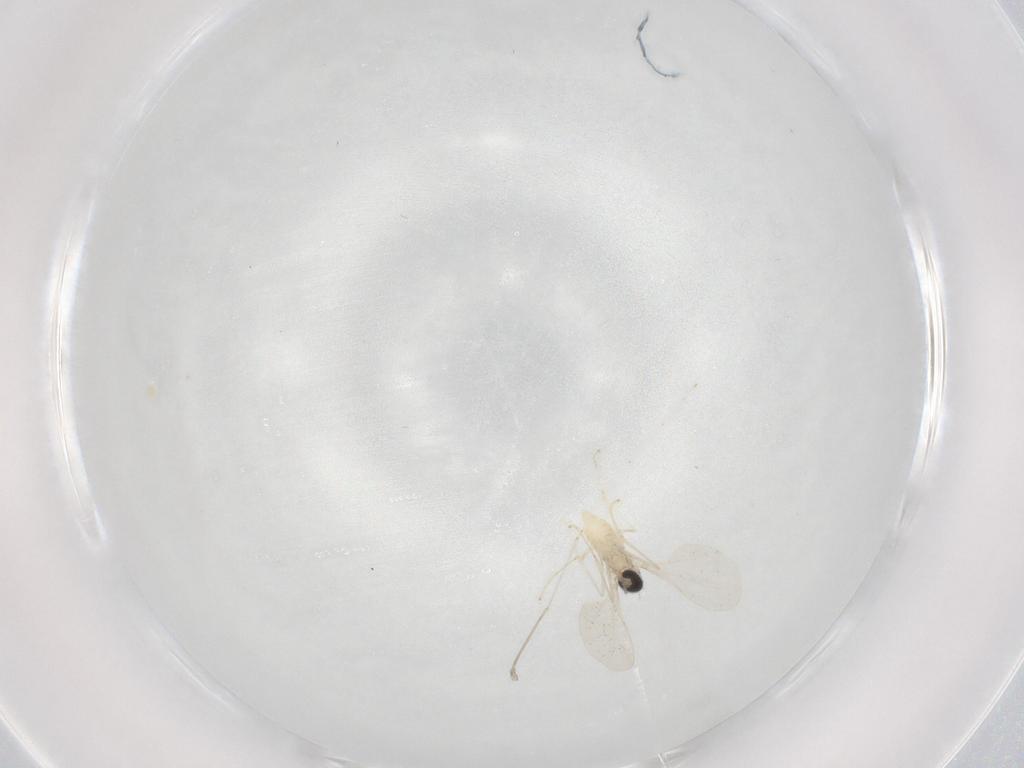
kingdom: Animalia
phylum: Arthropoda
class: Insecta
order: Diptera
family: Cecidomyiidae
